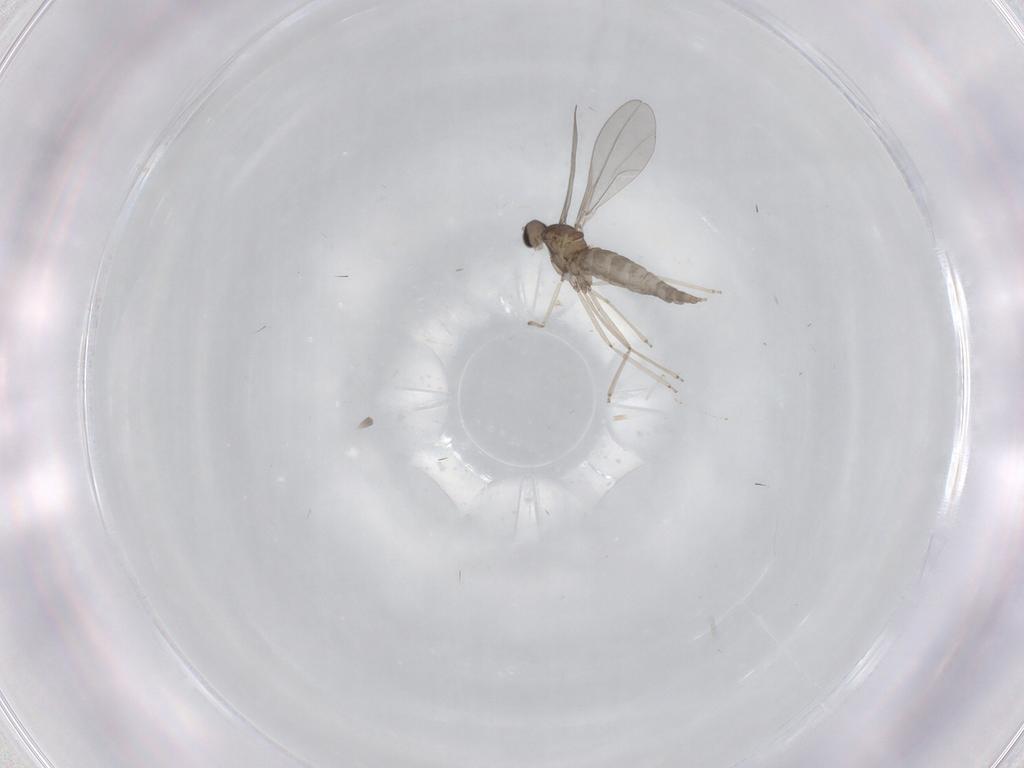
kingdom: Animalia
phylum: Arthropoda
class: Insecta
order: Diptera
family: Cecidomyiidae
